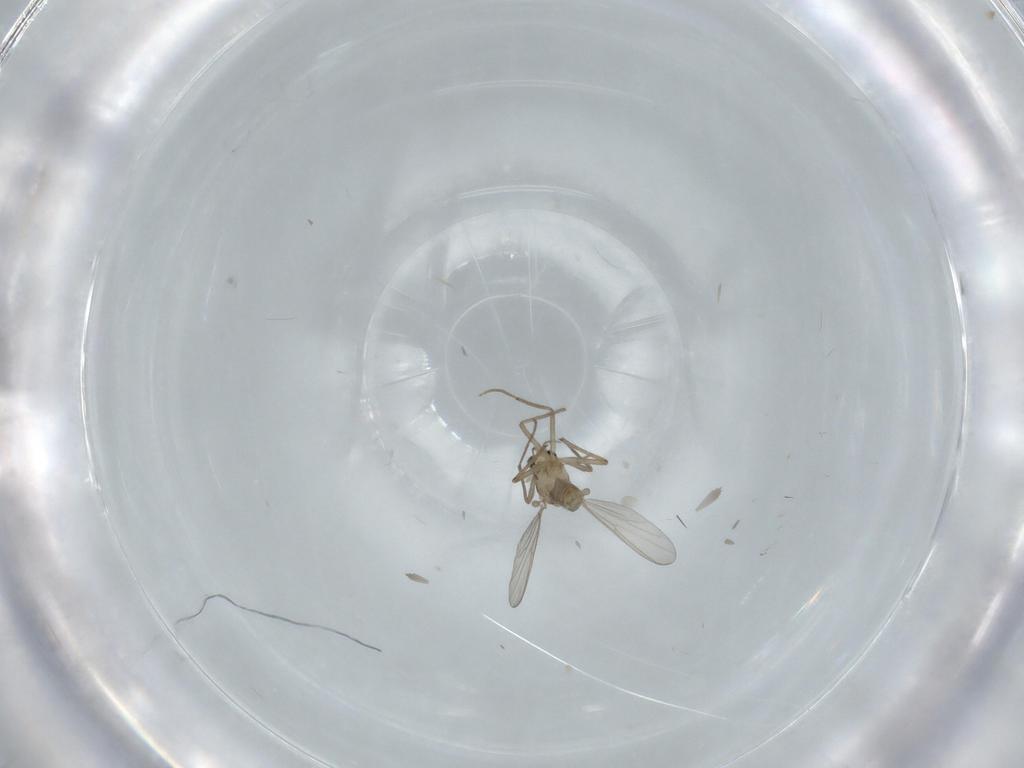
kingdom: Animalia
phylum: Arthropoda
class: Insecta
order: Diptera
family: Chironomidae
